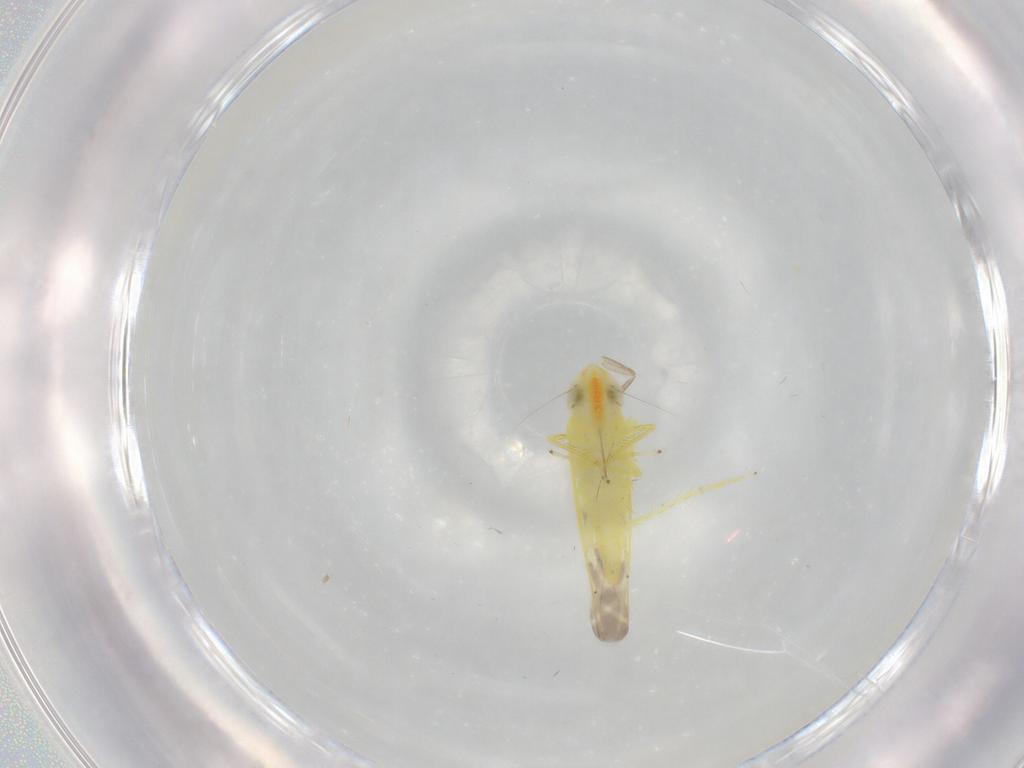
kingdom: Animalia
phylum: Arthropoda
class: Insecta
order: Hemiptera
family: Cicadellidae
